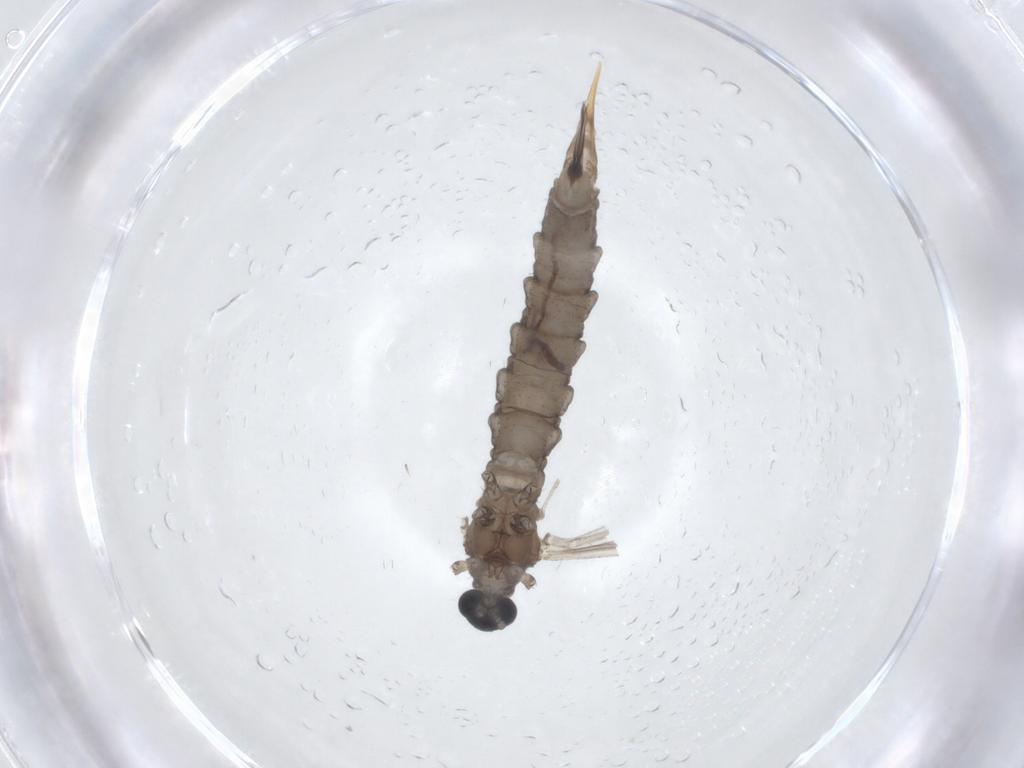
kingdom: Animalia
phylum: Arthropoda
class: Insecta
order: Diptera
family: Limoniidae
